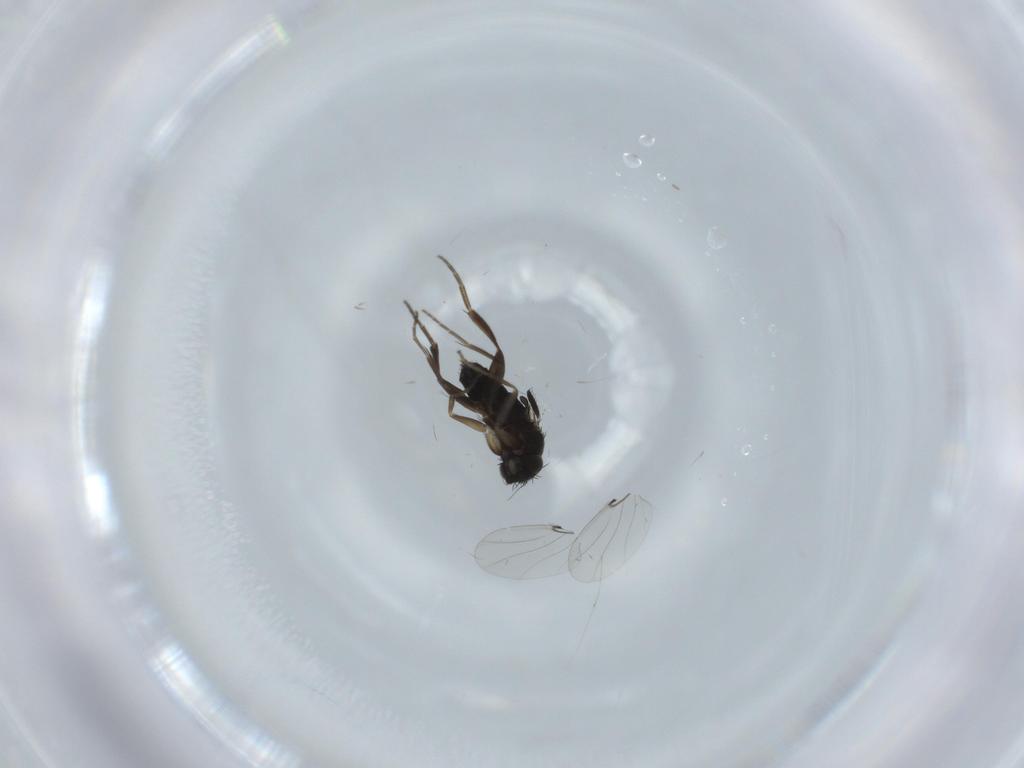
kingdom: Animalia
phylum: Arthropoda
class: Insecta
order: Diptera
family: Phoridae
